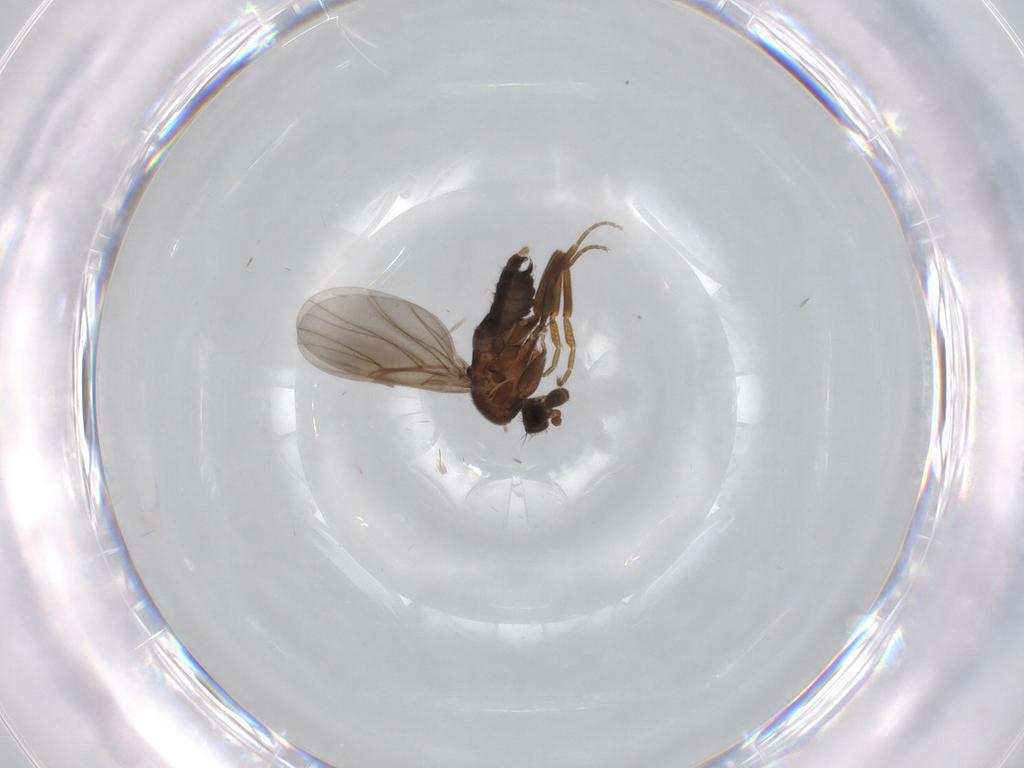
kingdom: Animalia
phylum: Arthropoda
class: Insecta
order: Diptera
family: Phoridae
